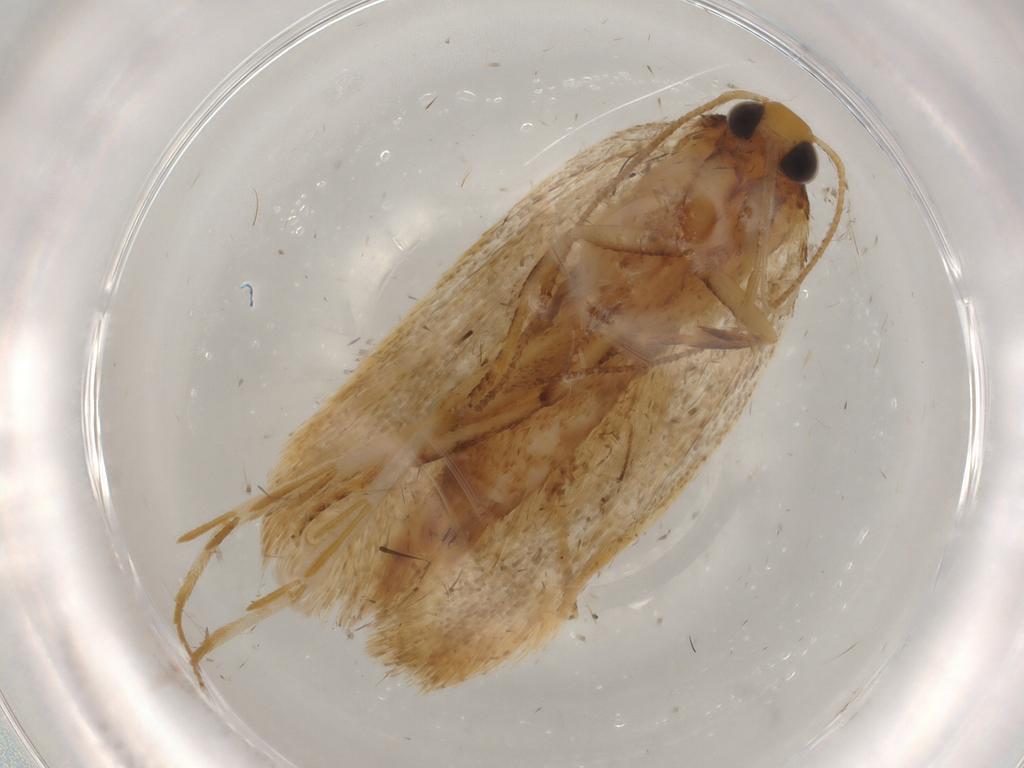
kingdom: Animalia
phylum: Arthropoda
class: Insecta
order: Lepidoptera
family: Gelechiidae
